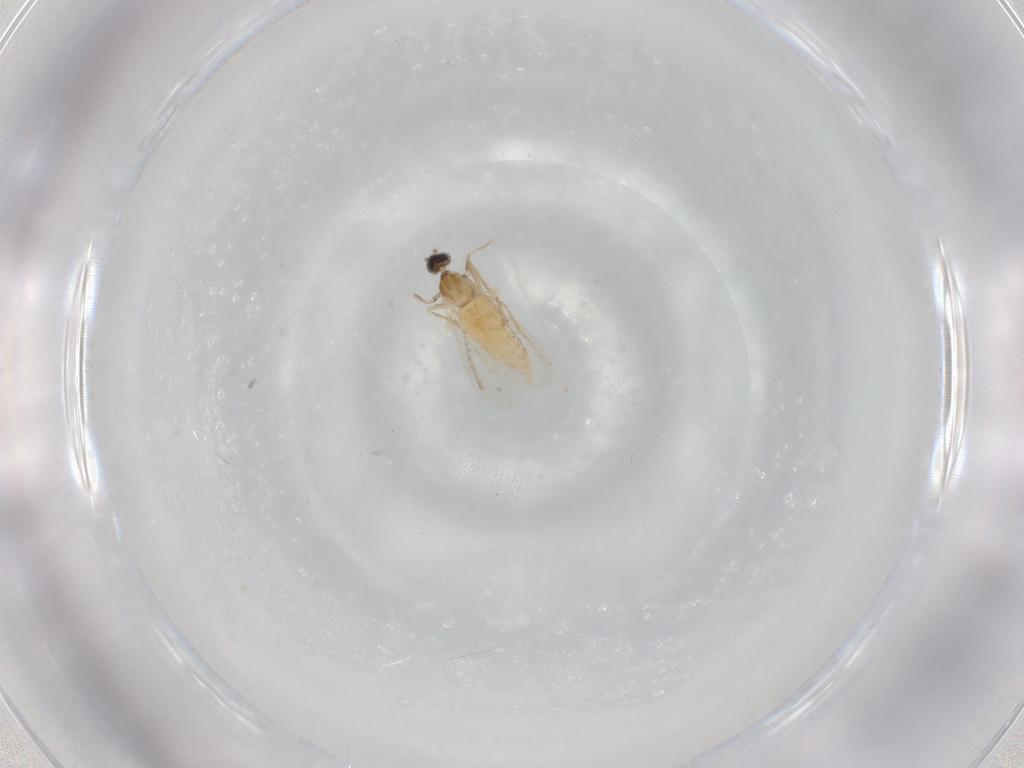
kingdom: Animalia
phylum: Arthropoda
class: Insecta
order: Diptera
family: Cecidomyiidae
